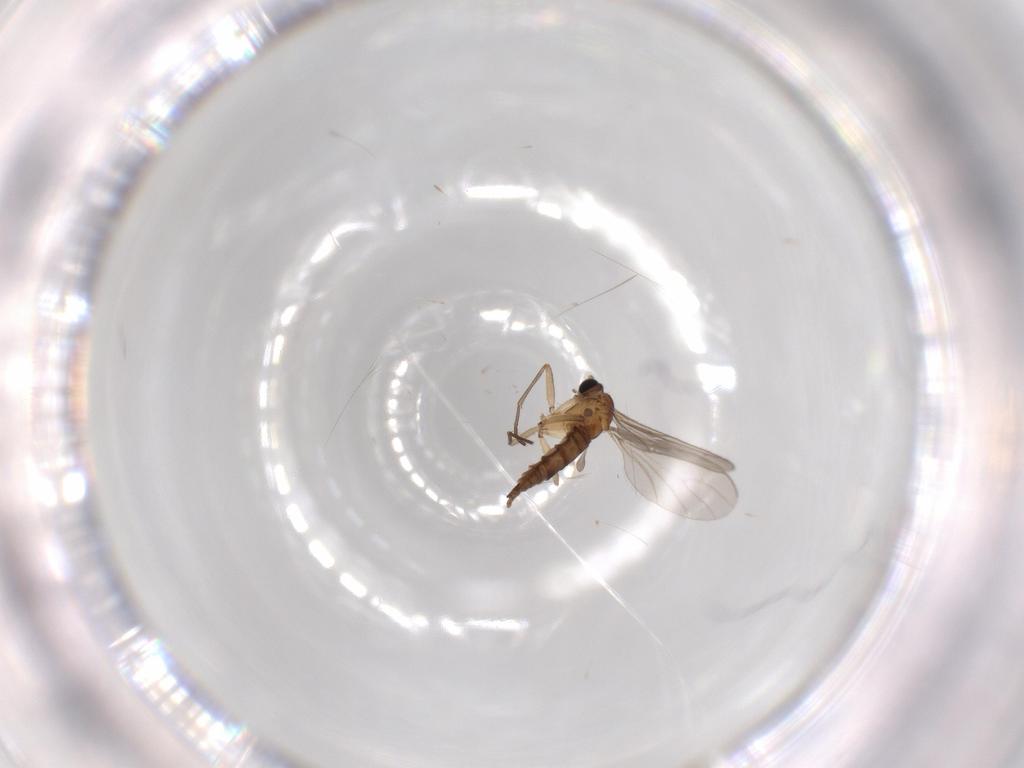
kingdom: Animalia
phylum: Arthropoda
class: Insecta
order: Diptera
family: Sciaridae
